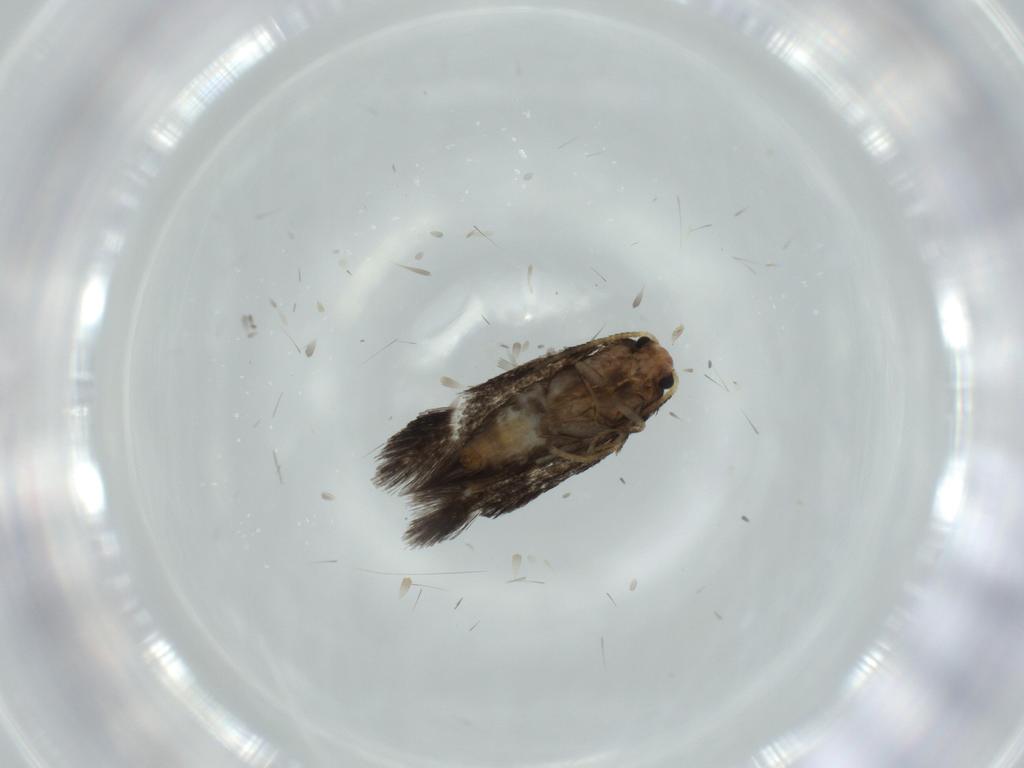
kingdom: Animalia
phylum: Arthropoda
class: Insecta
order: Lepidoptera
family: Nepticulidae
